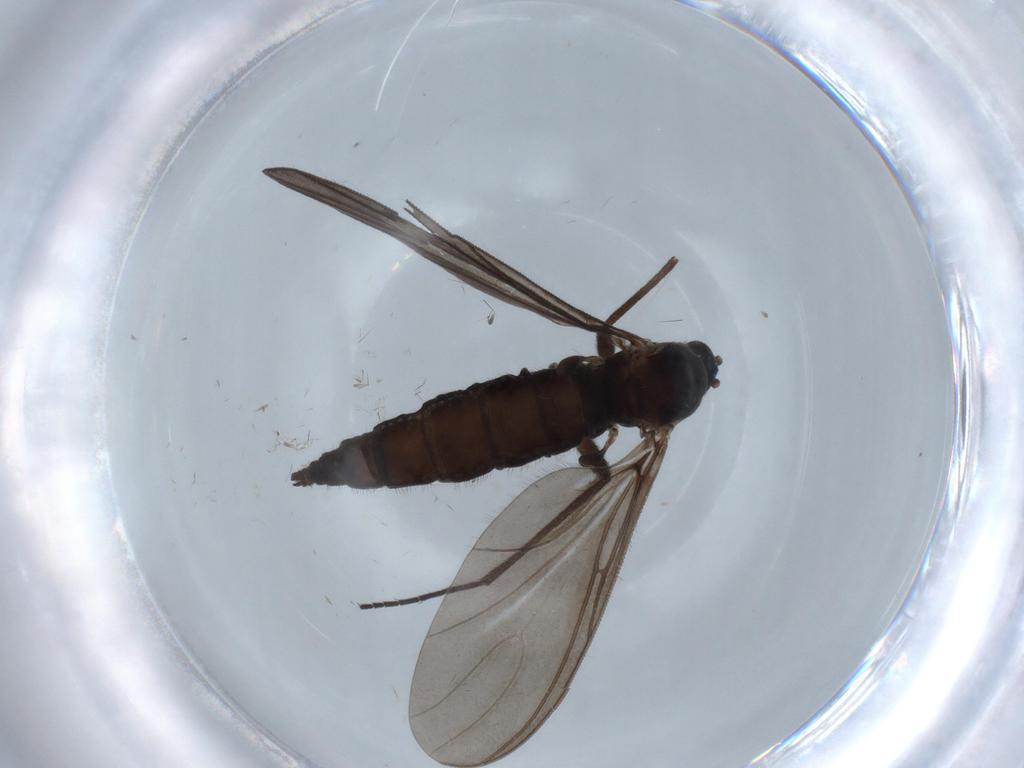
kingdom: Animalia
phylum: Arthropoda
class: Insecta
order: Diptera
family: Sciaridae
